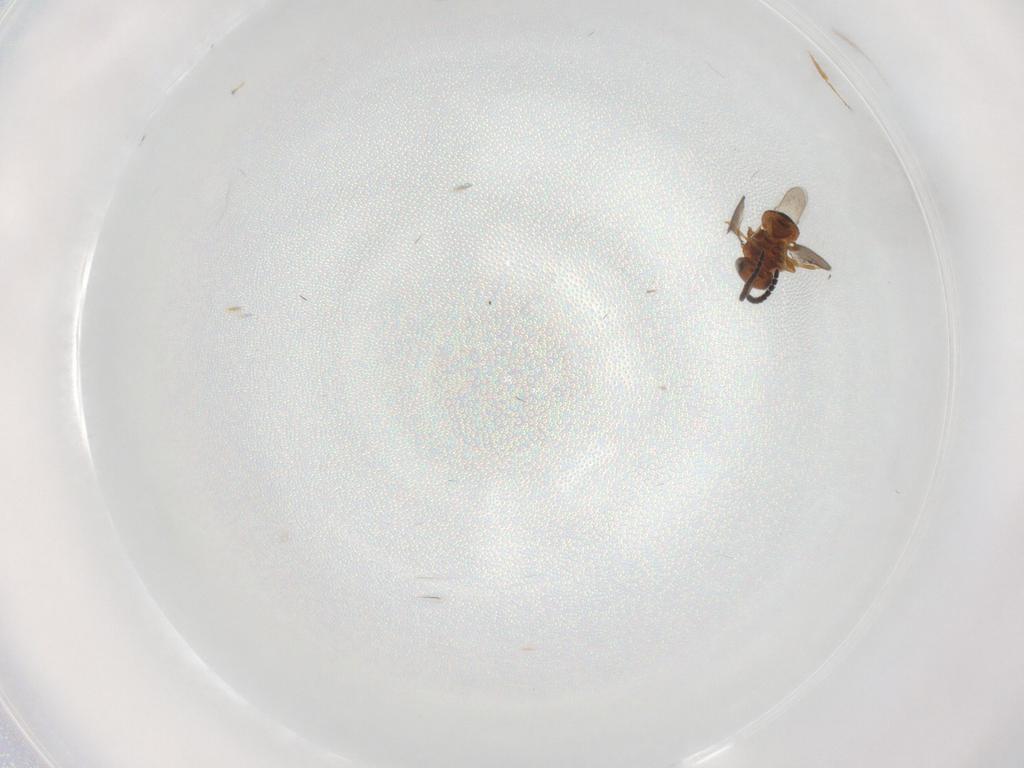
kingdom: Animalia
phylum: Arthropoda
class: Insecta
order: Hymenoptera
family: Scelionidae
